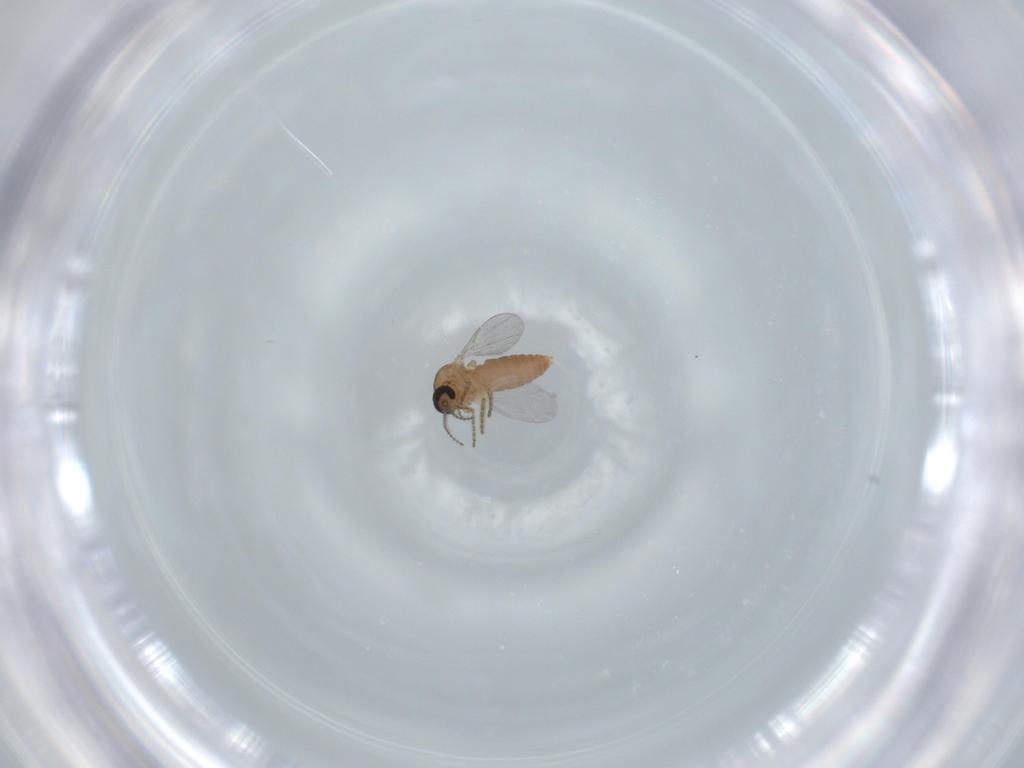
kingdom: Animalia
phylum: Arthropoda
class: Insecta
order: Diptera
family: Ceratopogonidae
